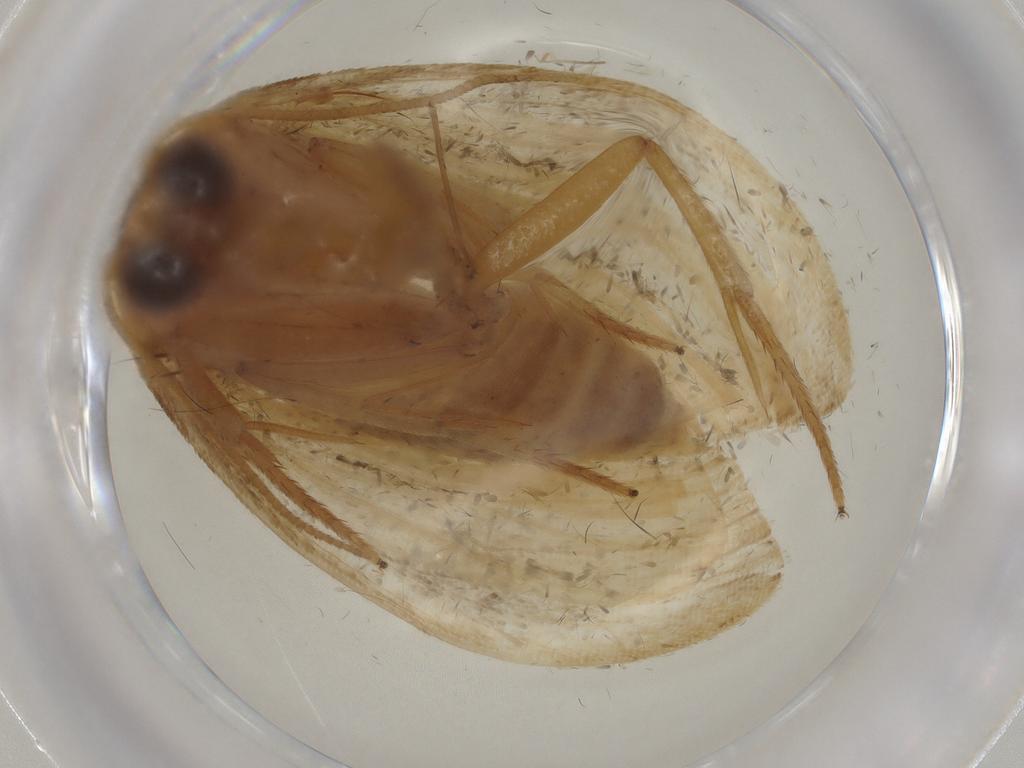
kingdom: Animalia
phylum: Arthropoda
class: Insecta
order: Lepidoptera
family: Noctuidae
